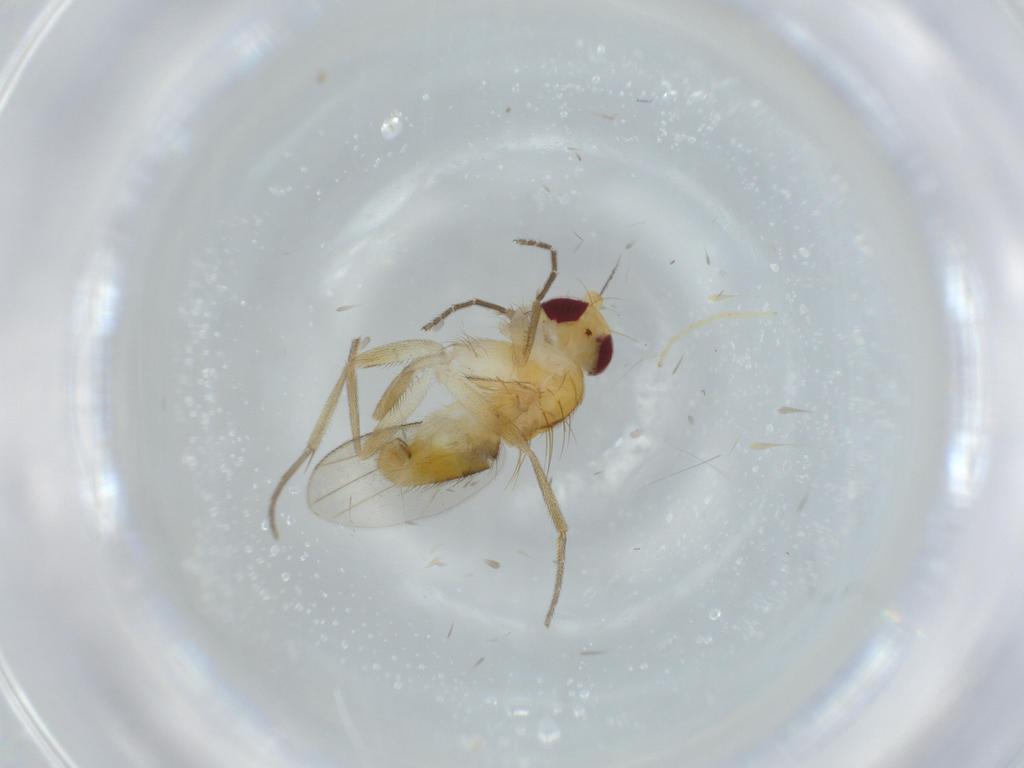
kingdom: Animalia
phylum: Arthropoda
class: Insecta
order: Diptera
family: Clusiidae
